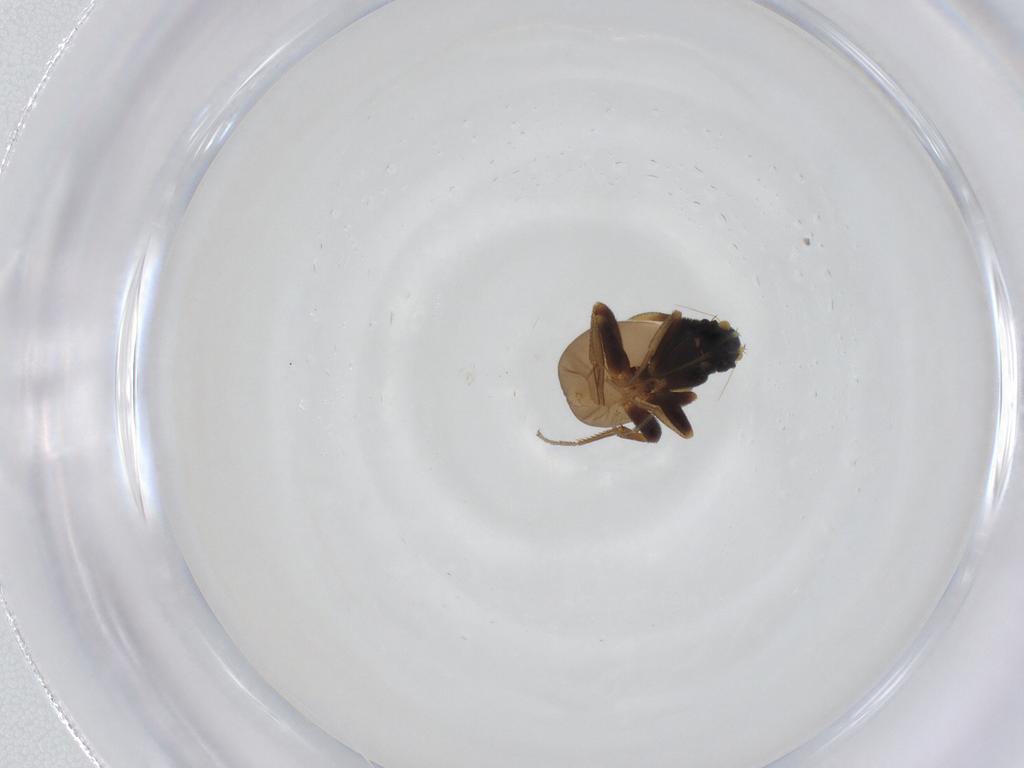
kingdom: Animalia
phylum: Arthropoda
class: Insecta
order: Diptera
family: Phoridae
